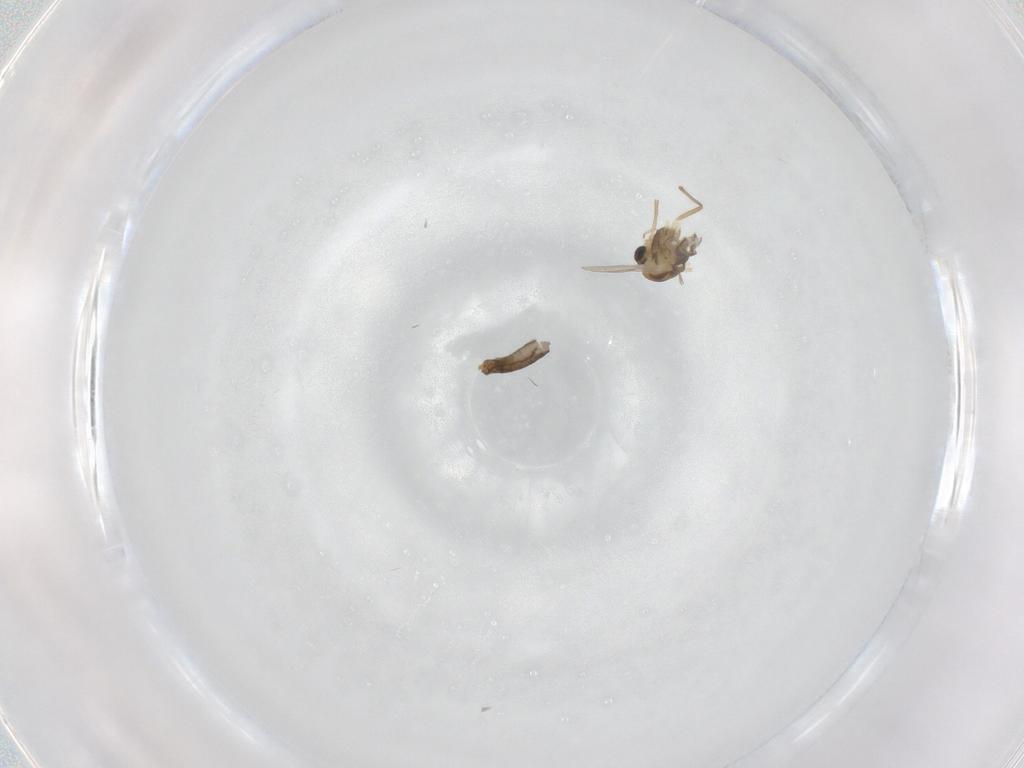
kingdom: Animalia
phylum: Arthropoda
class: Insecta
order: Diptera
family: Chironomidae
